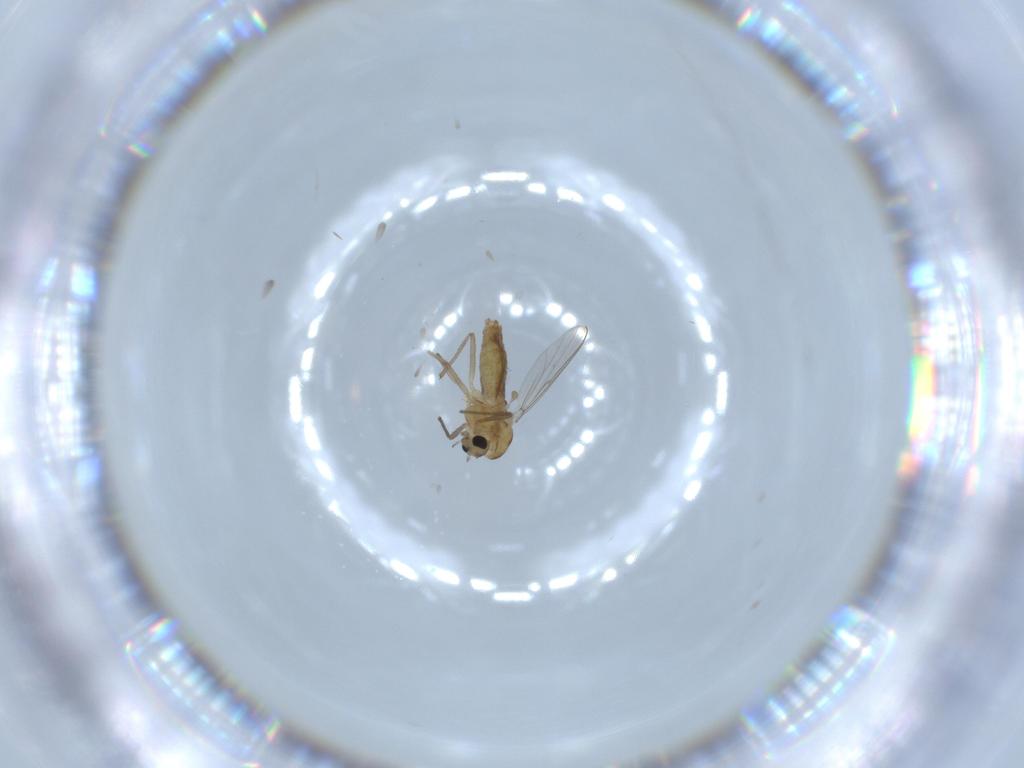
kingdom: Animalia
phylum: Arthropoda
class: Insecta
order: Diptera
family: Ceratopogonidae
